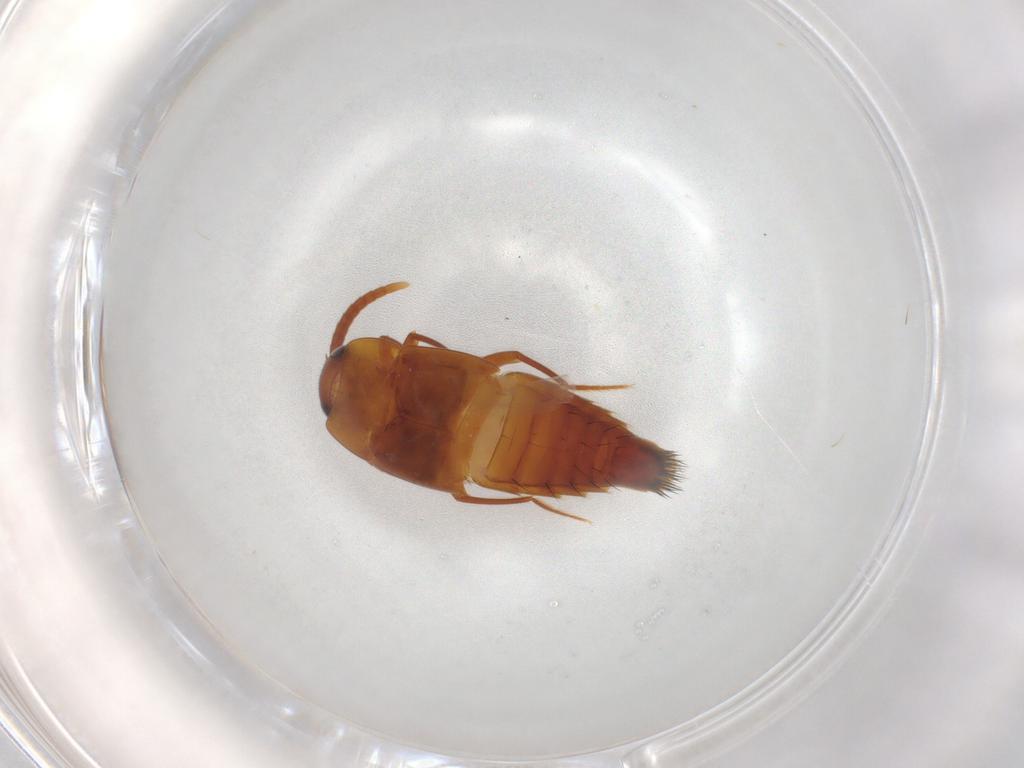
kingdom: Animalia
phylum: Arthropoda
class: Insecta
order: Coleoptera
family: Staphylinidae
